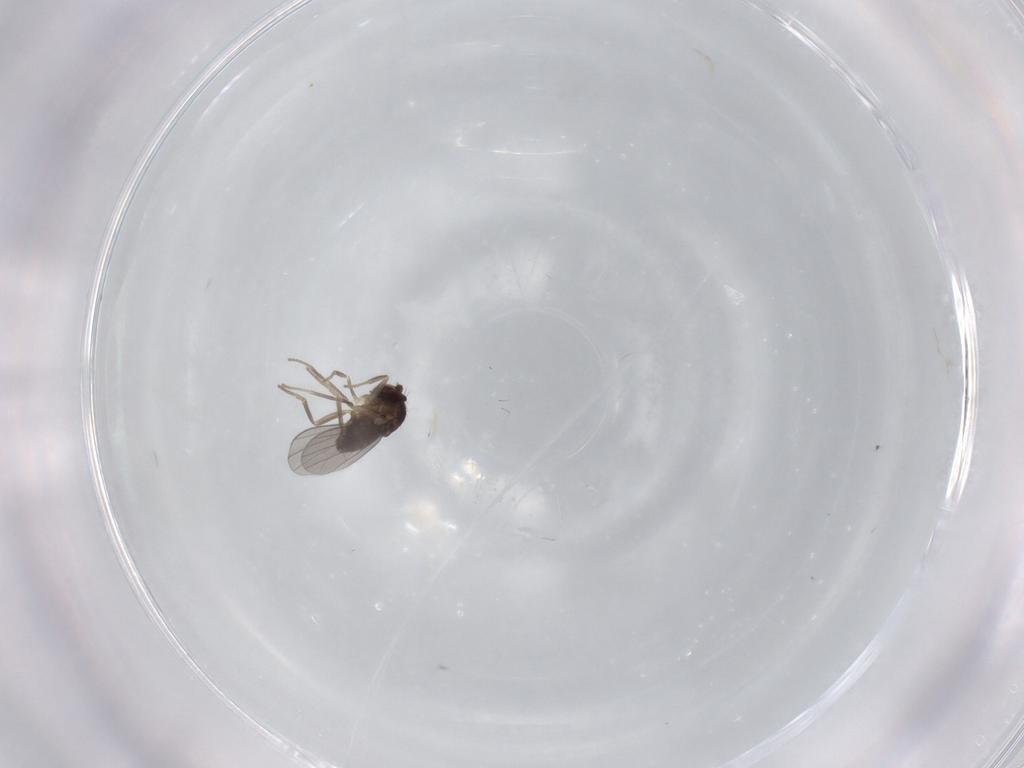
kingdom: Animalia
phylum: Arthropoda
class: Insecta
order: Diptera
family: Dolichopodidae
